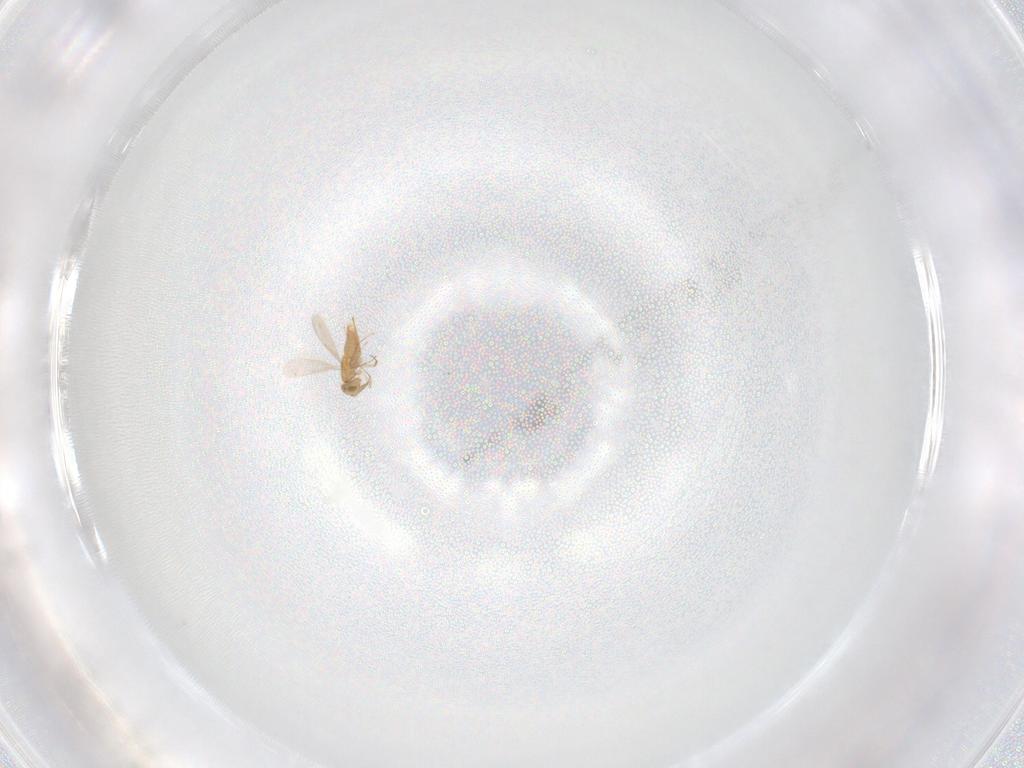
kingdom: Animalia
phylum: Arthropoda
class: Insecta
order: Hymenoptera
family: Aphelinidae
